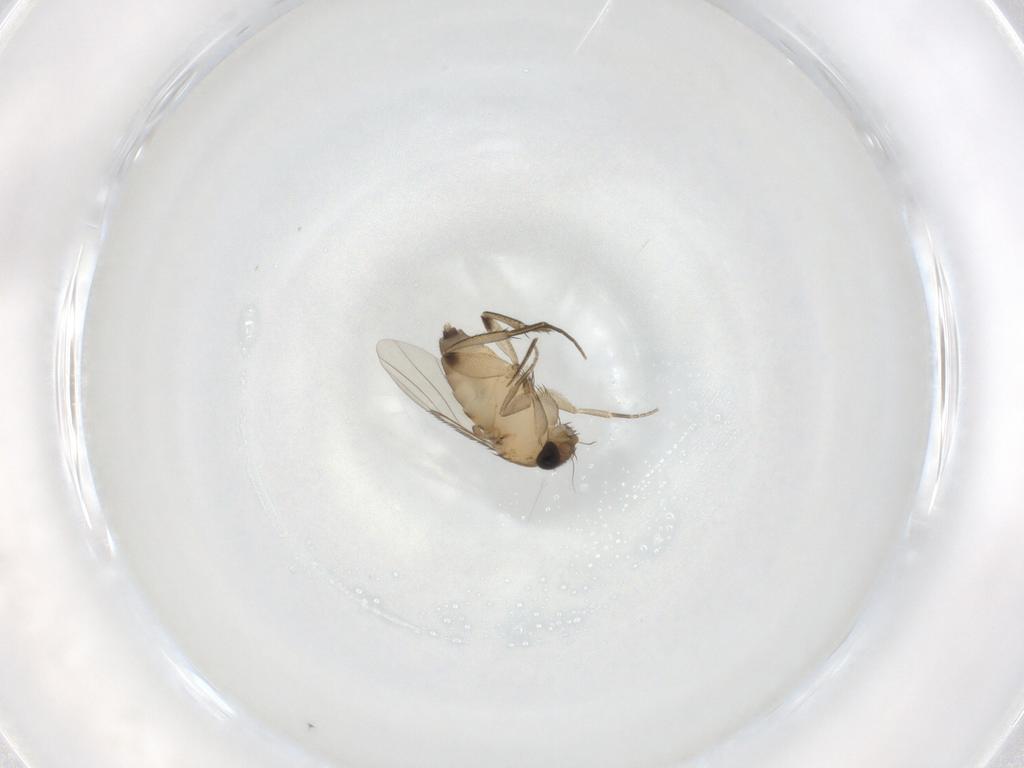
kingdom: Animalia
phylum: Arthropoda
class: Insecta
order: Diptera
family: Phoridae
